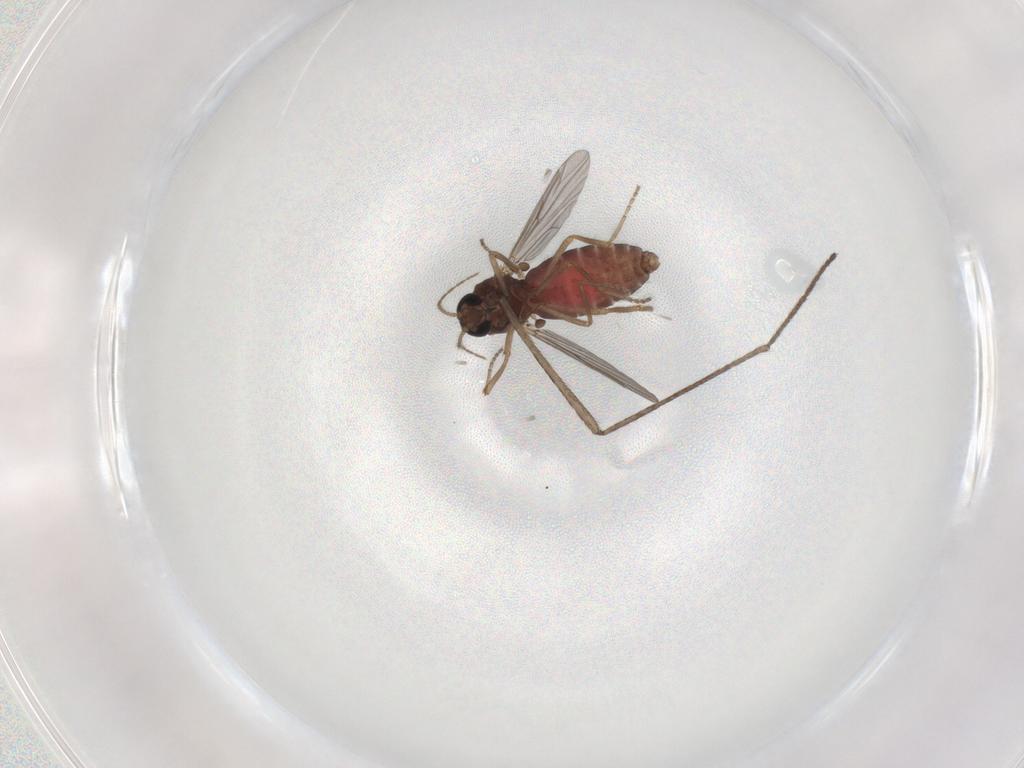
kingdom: Animalia
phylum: Arthropoda
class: Insecta
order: Diptera
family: Ceratopogonidae
